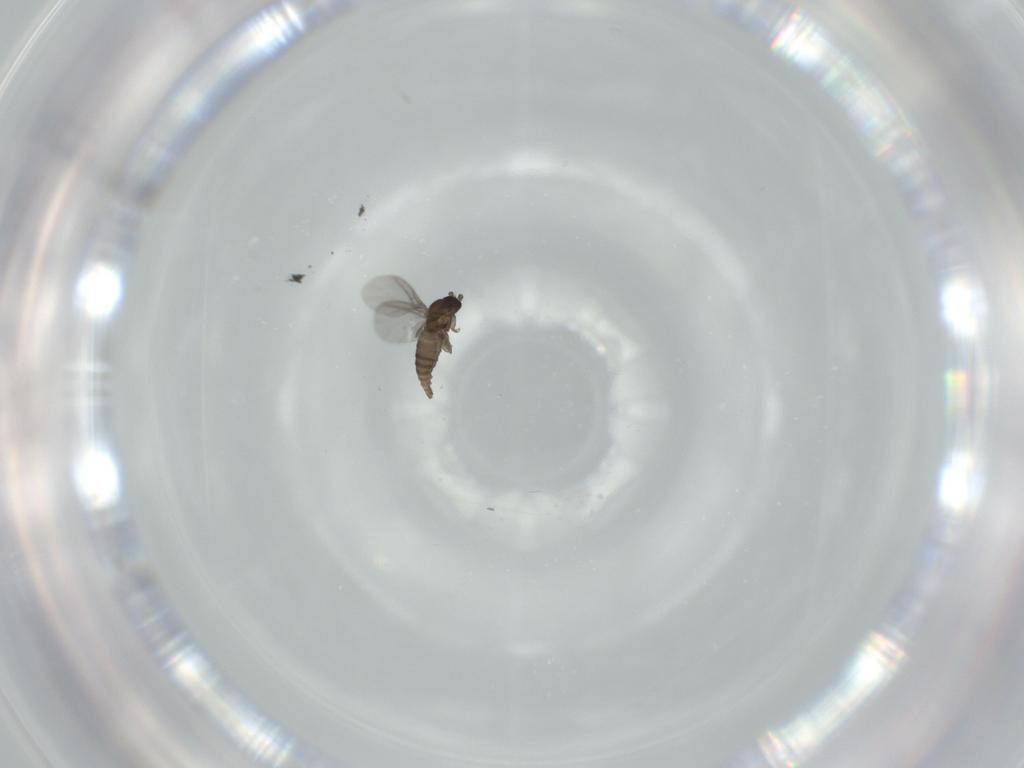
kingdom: Animalia
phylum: Arthropoda
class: Insecta
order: Diptera
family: Sciaridae
